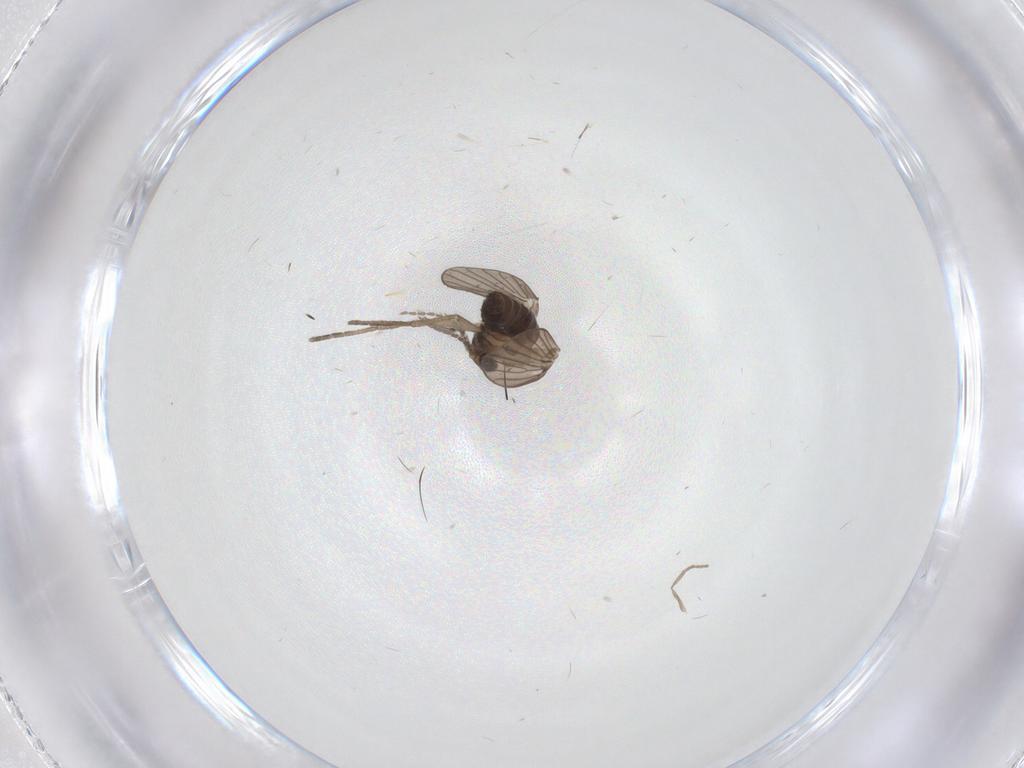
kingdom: Animalia
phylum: Arthropoda
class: Insecta
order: Diptera
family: Psychodidae
